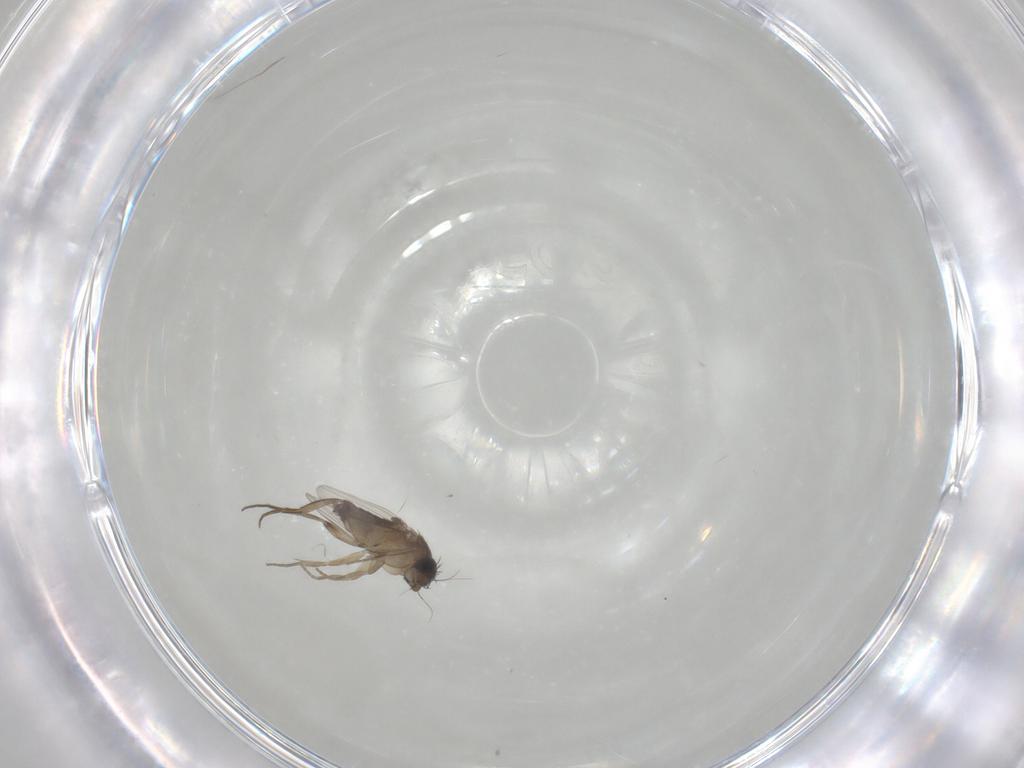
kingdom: Animalia
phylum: Arthropoda
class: Insecta
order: Diptera
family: Phoridae
